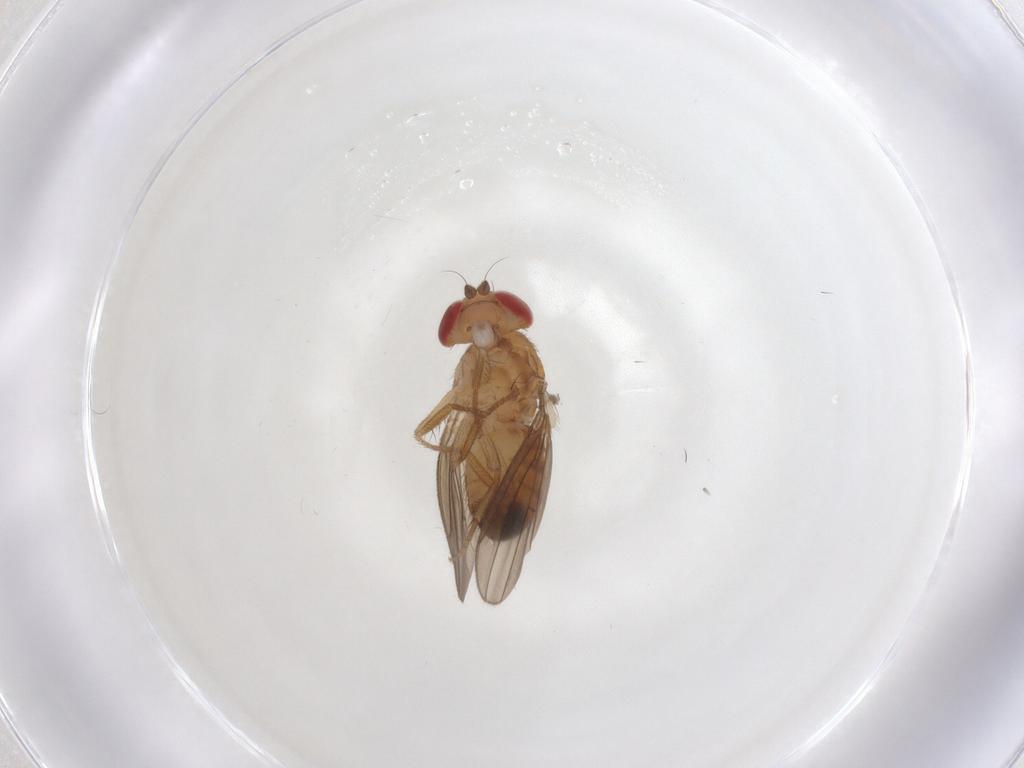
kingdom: Animalia
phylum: Arthropoda
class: Insecta
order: Diptera
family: Drosophilidae
